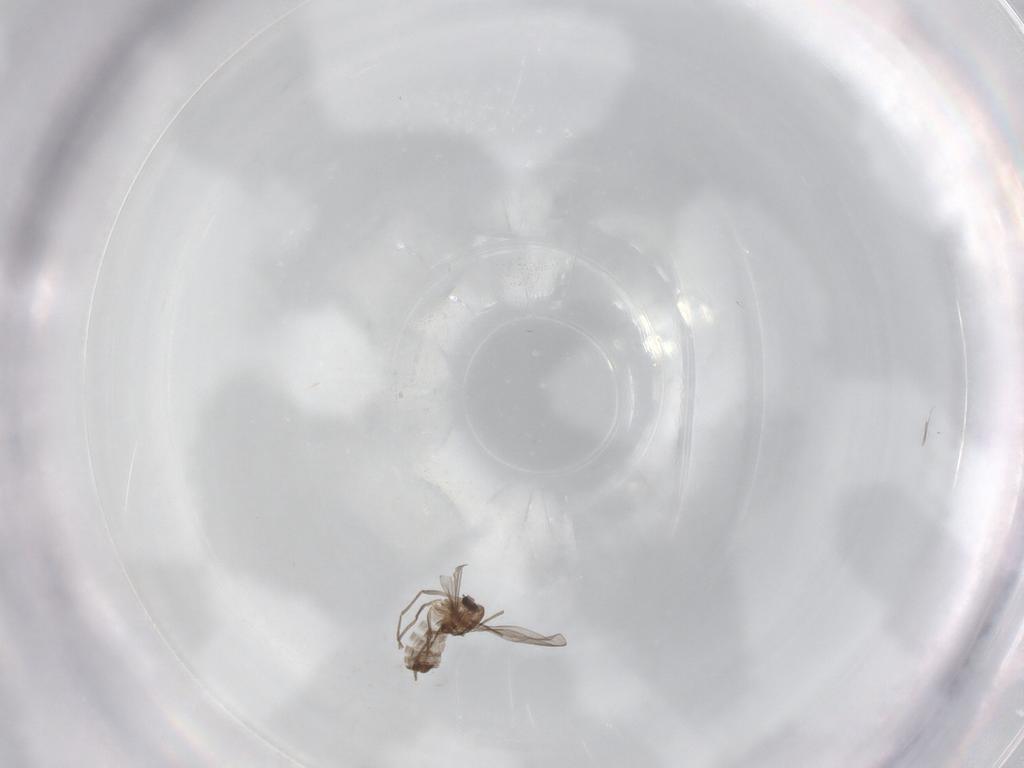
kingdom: Animalia
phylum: Arthropoda
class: Insecta
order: Diptera
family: Chironomidae
